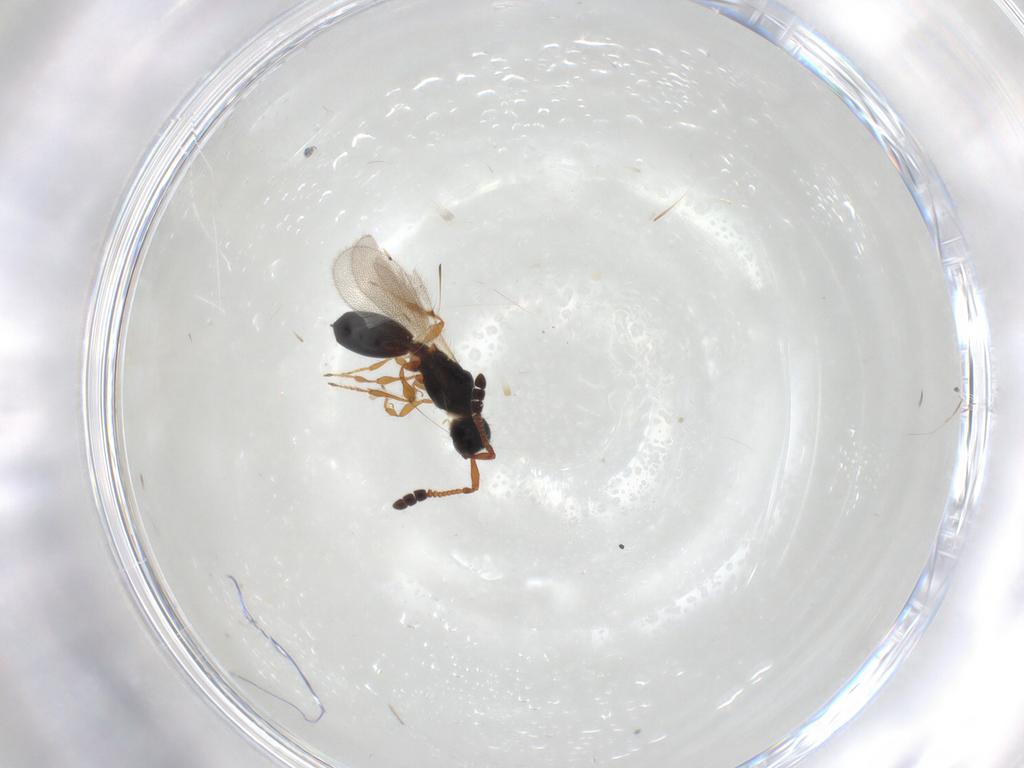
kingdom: Animalia
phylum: Arthropoda
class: Insecta
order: Hymenoptera
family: Diapriidae
